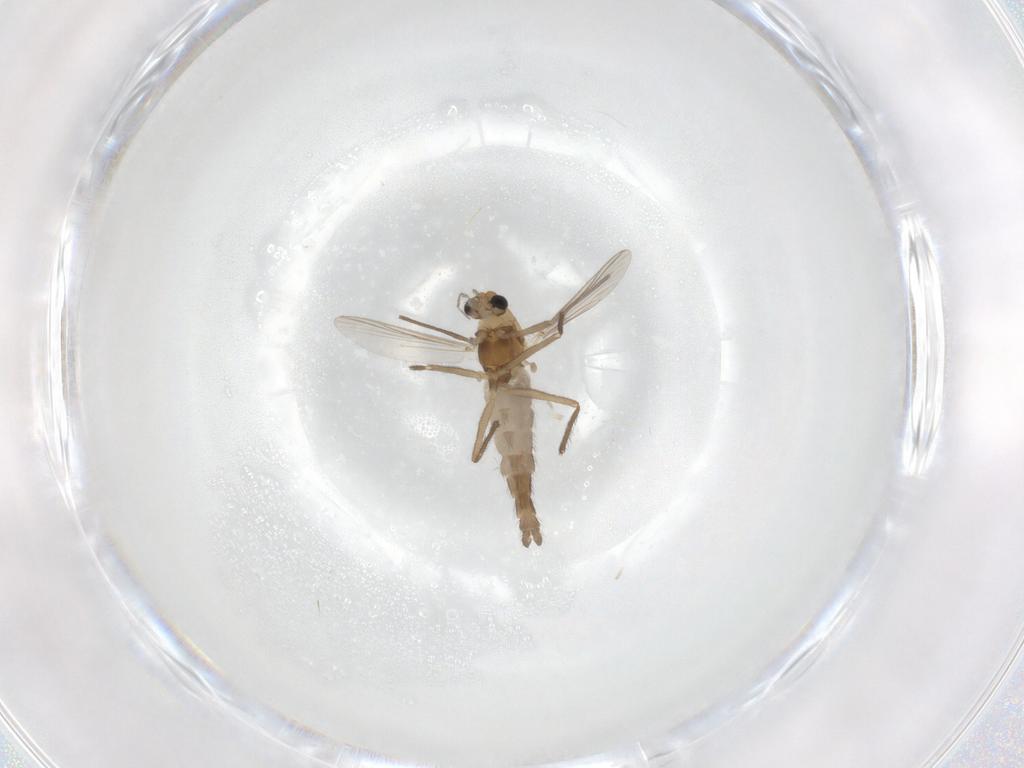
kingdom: Animalia
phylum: Arthropoda
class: Insecta
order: Diptera
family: Chironomidae
